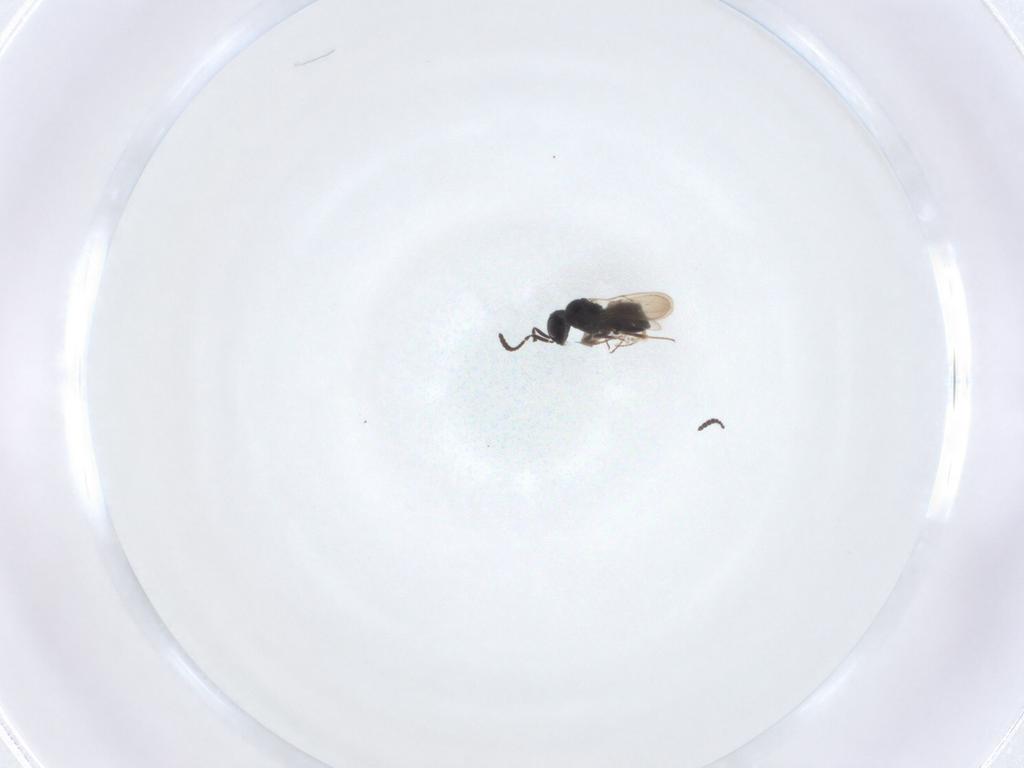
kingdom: Animalia
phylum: Arthropoda
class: Insecta
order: Hymenoptera
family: Scelionidae
